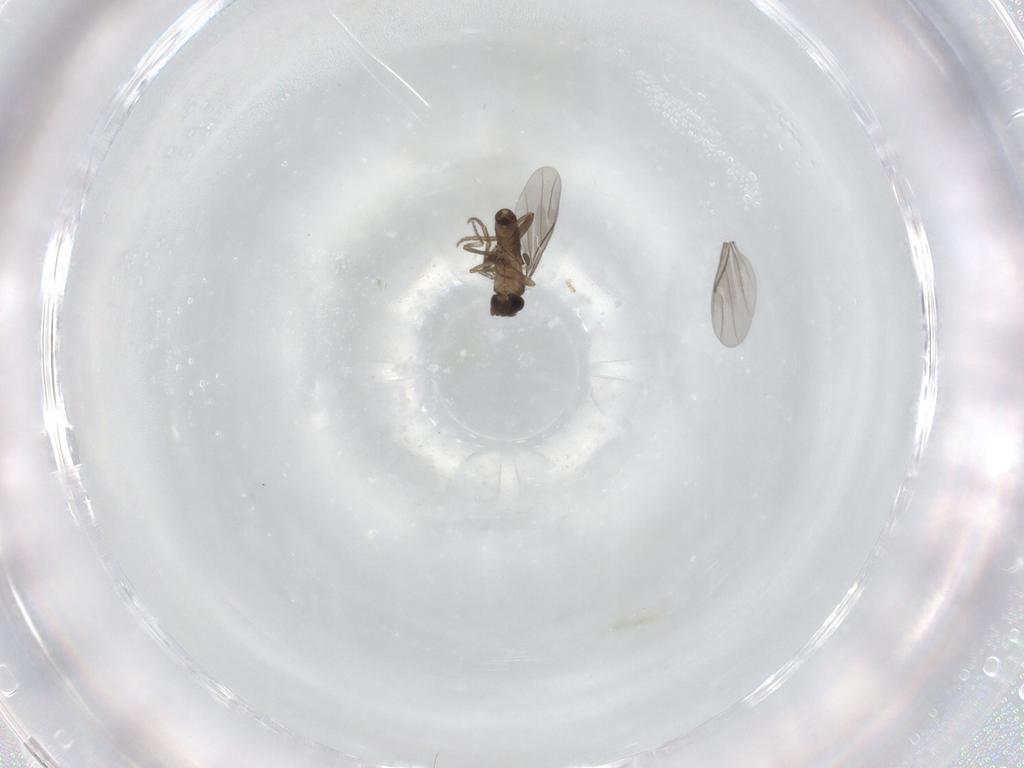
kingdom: Animalia
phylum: Arthropoda
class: Insecta
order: Diptera
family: Phoridae
